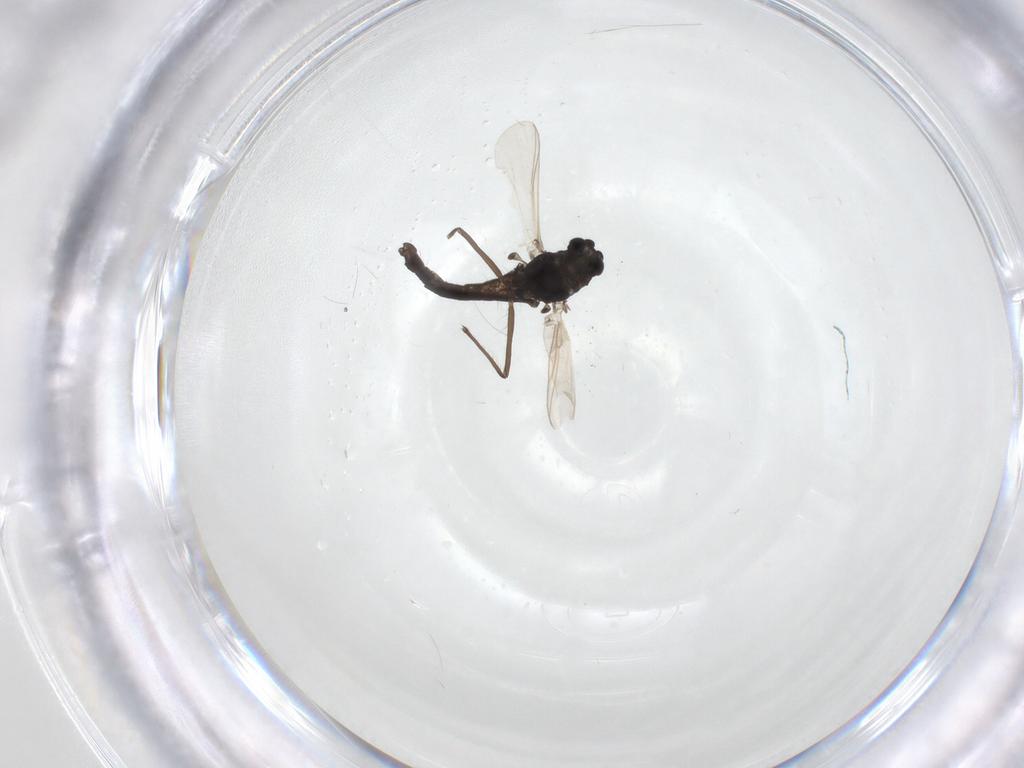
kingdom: Animalia
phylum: Arthropoda
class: Insecta
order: Diptera
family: Chironomidae
